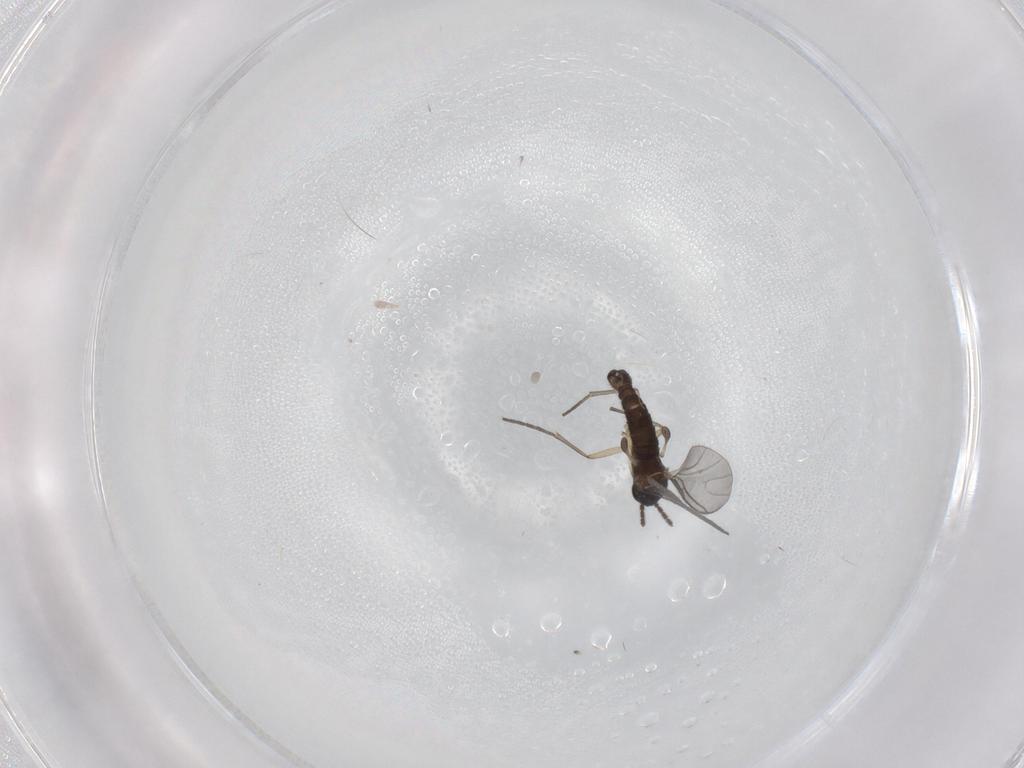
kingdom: Animalia
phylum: Arthropoda
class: Insecta
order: Diptera
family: Sciaridae
